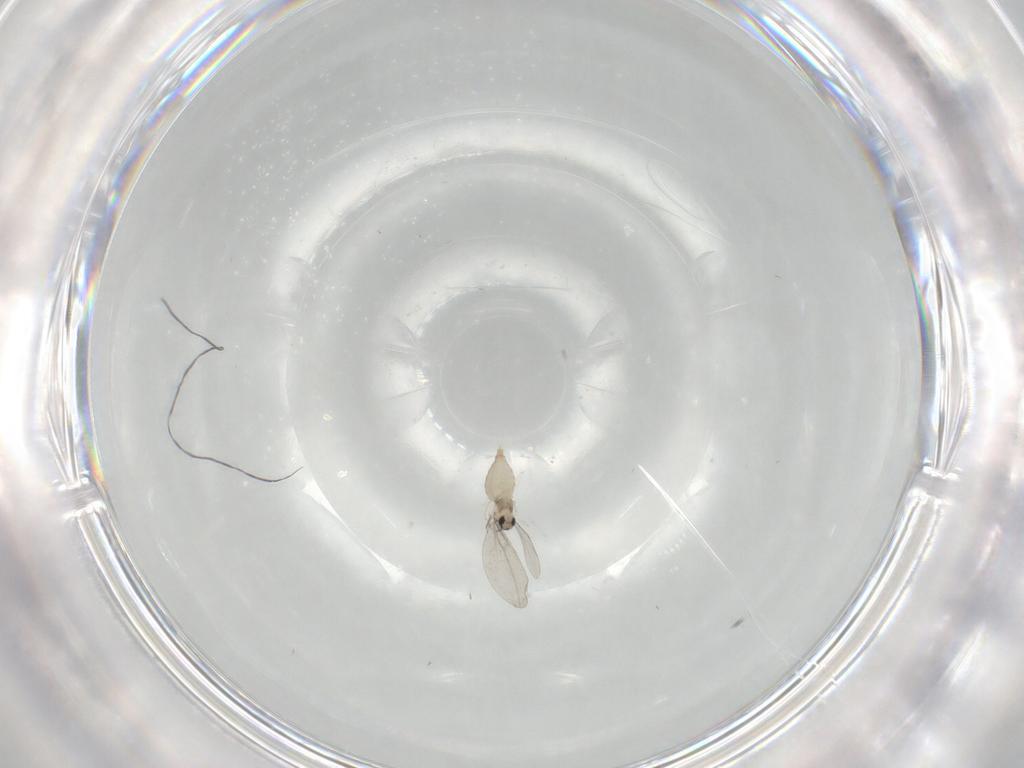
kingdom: Animalia
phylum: Arthropoda
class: Insecta
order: Diptera
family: Cecidomyiidae
